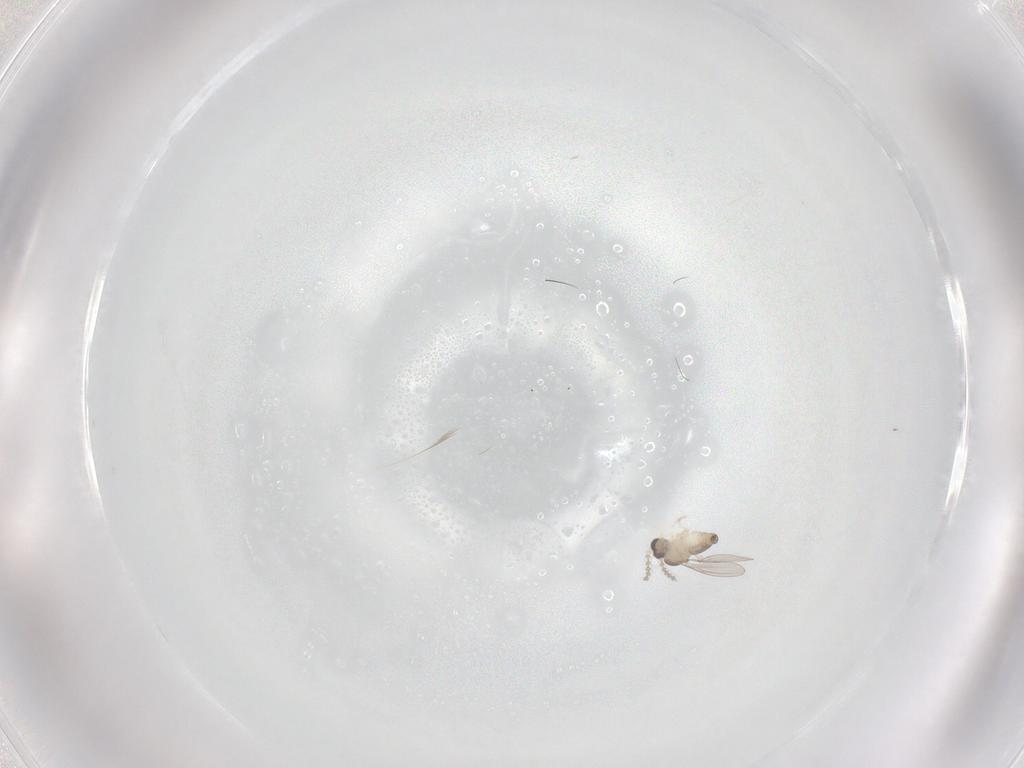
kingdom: Animalia
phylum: Arthropoda
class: Insecta
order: Diptera
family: Cecidomyiidae
